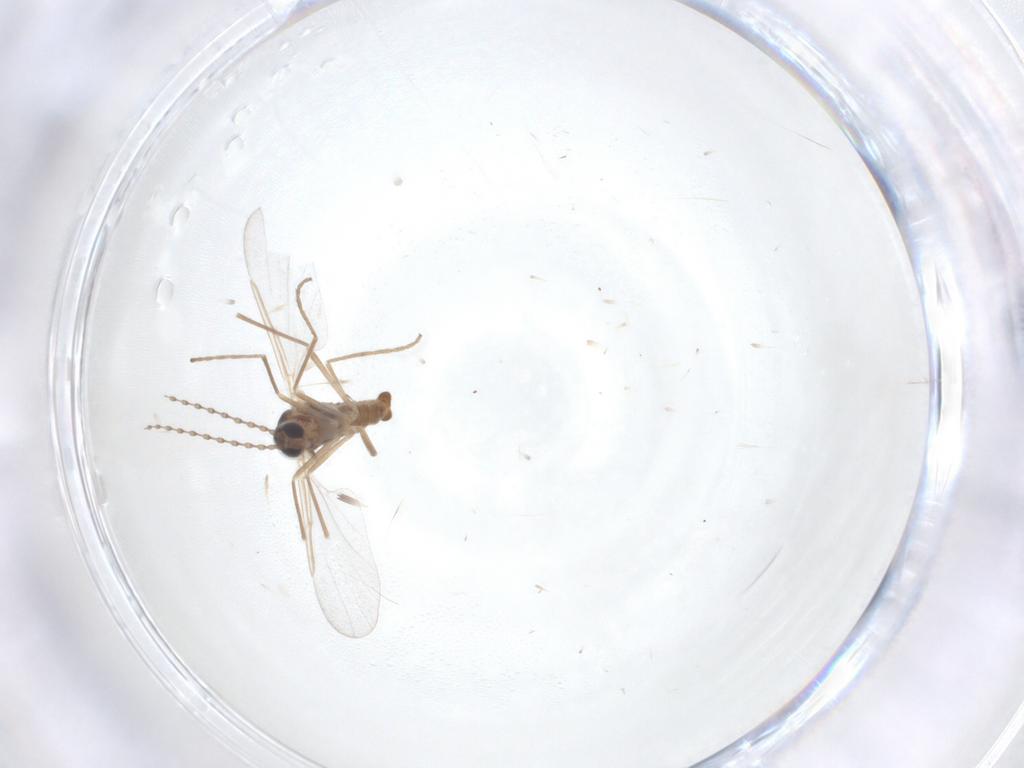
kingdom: Animalia
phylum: Arthropoda
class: Insecta
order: Diptera
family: Cecidomyiidae
